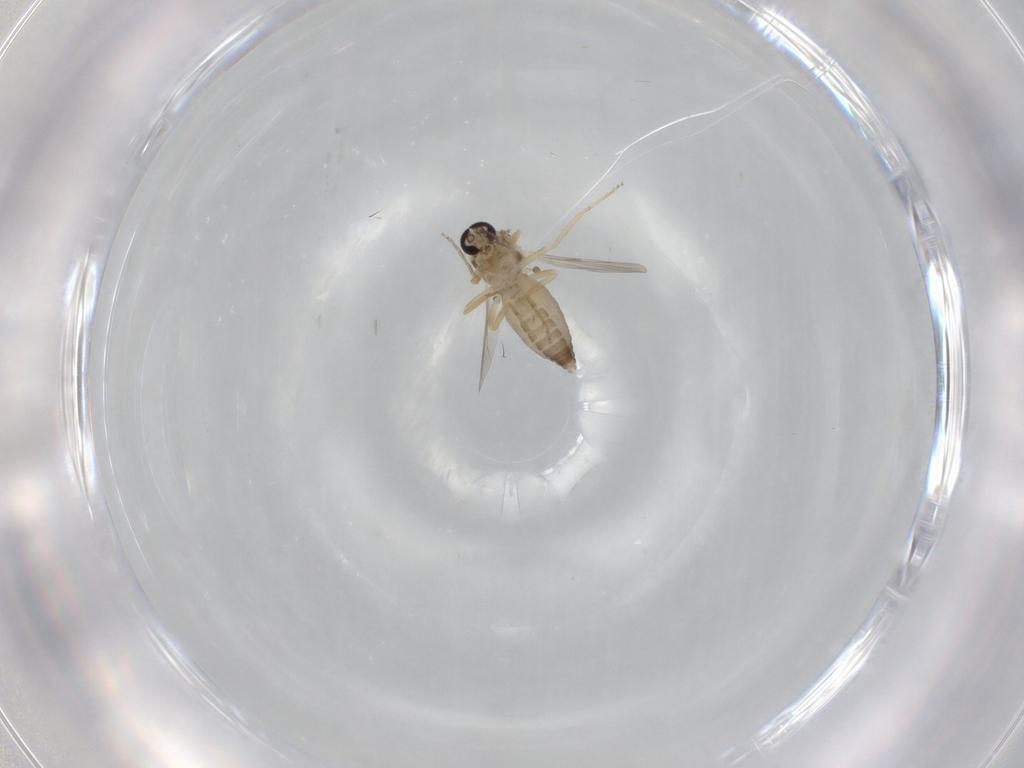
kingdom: Animalia
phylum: Arthropoda
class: Insecta
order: Diptera
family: Ceratopogonidae
